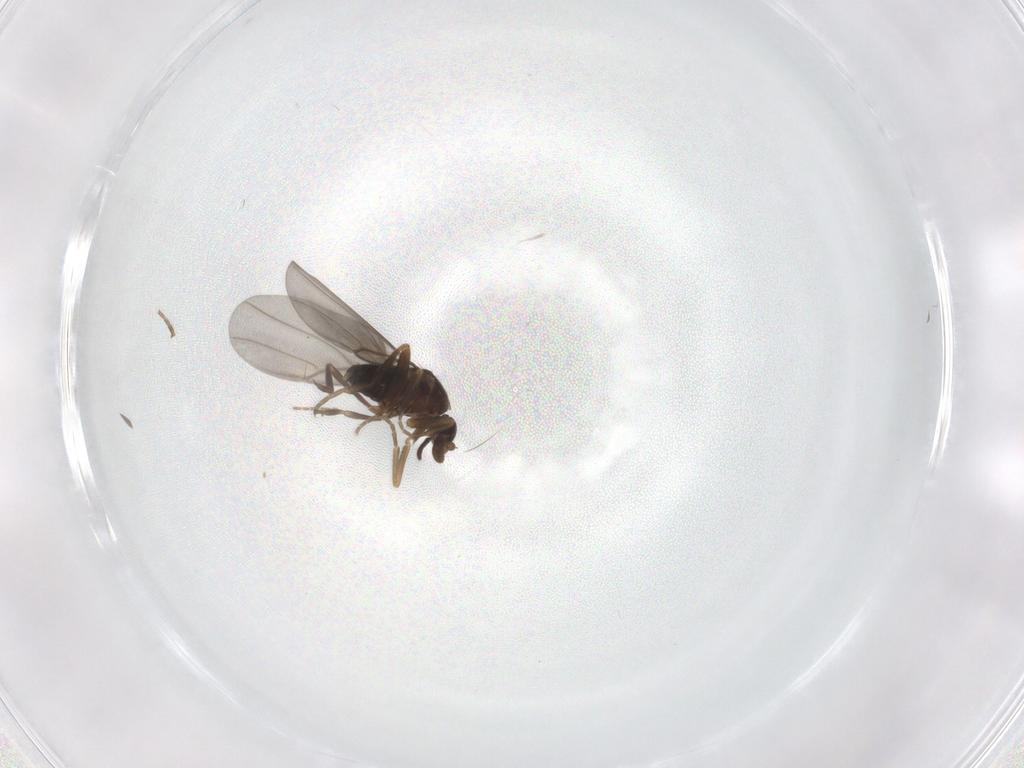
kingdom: Animalia
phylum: Arthropoda
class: Insecta
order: Diptera
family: Phoridae
